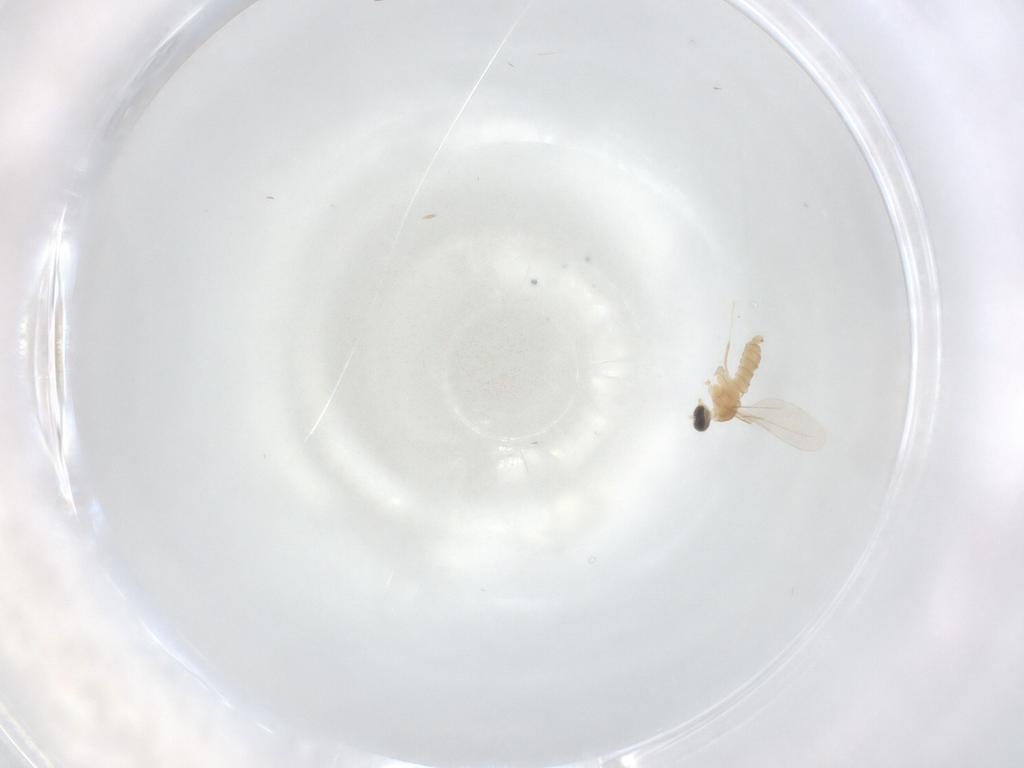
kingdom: Animalia
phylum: Arthropoda
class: Insecta
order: Diptera
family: Cecidomyiidae
